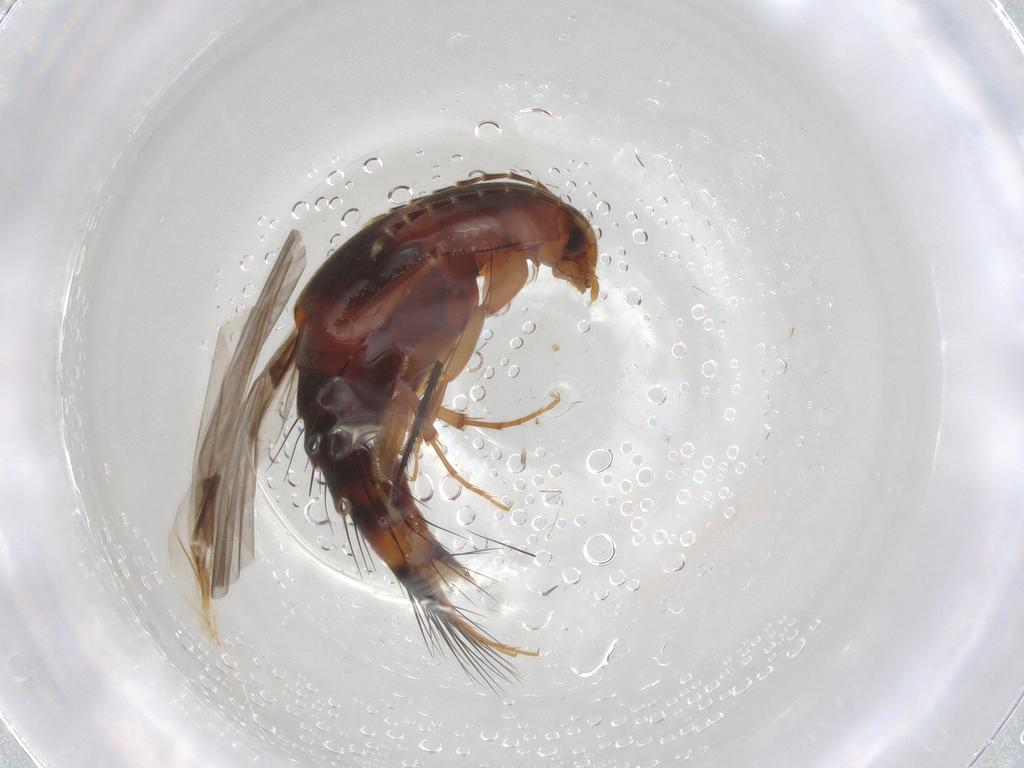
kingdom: Animalia
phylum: Arthropoda
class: Insecta
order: Coleoptera
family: Staphylinidae
